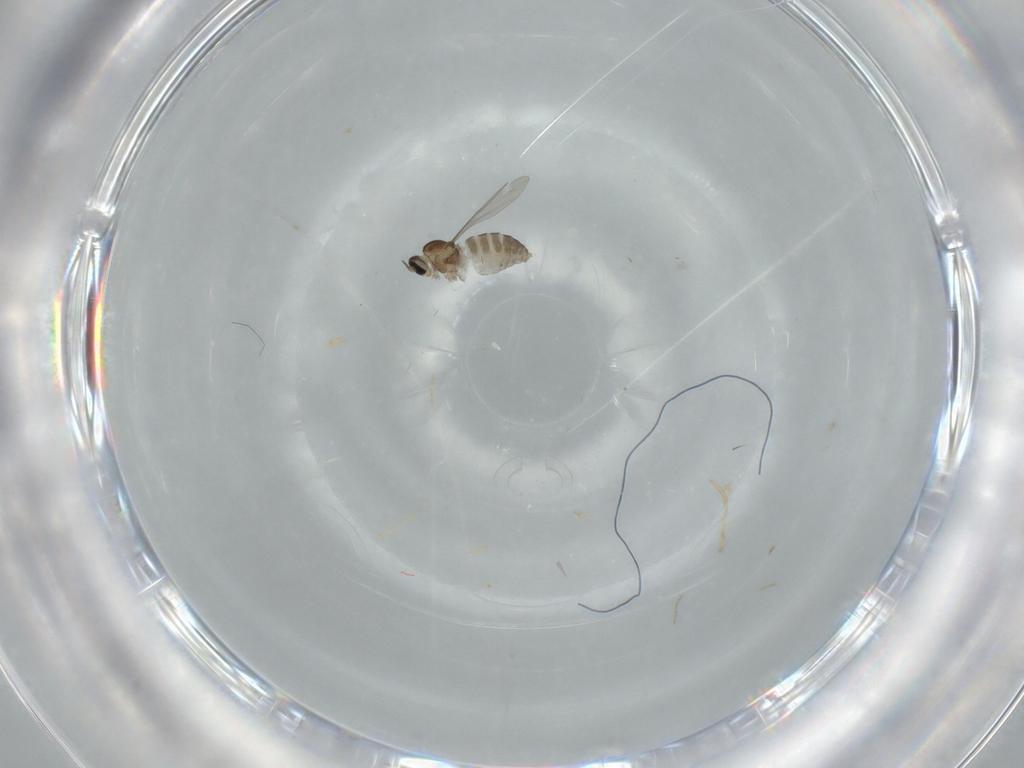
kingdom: Animalia
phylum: Arthropoda
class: Insecta
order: Diptera
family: Cecidomyiidae
